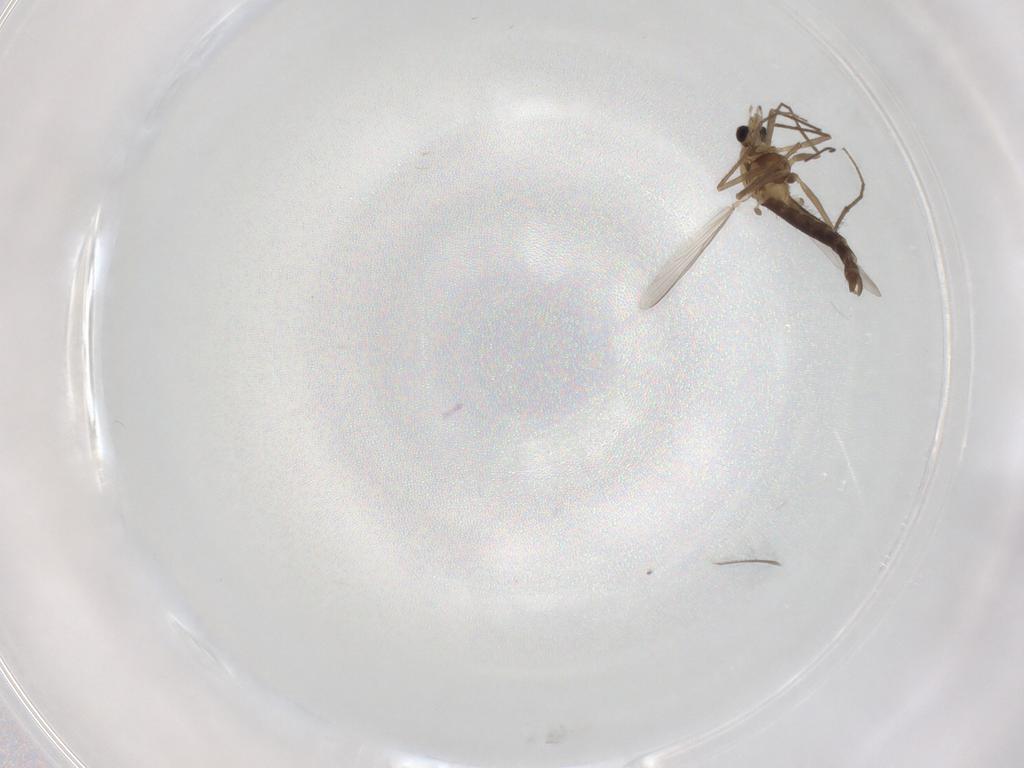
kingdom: Animalia
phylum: Arthropoda
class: Insecta
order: Diptera
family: Chironomidae
